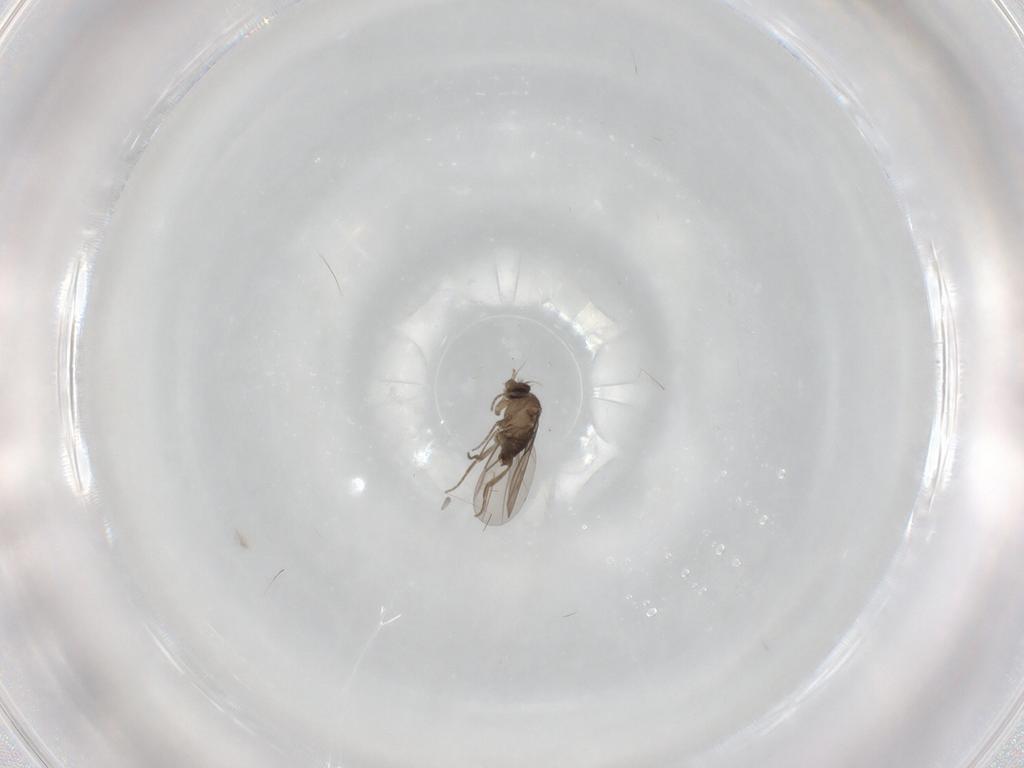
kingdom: Animalia
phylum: Arthropoda
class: Insecta
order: Diptera
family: Phoridae
